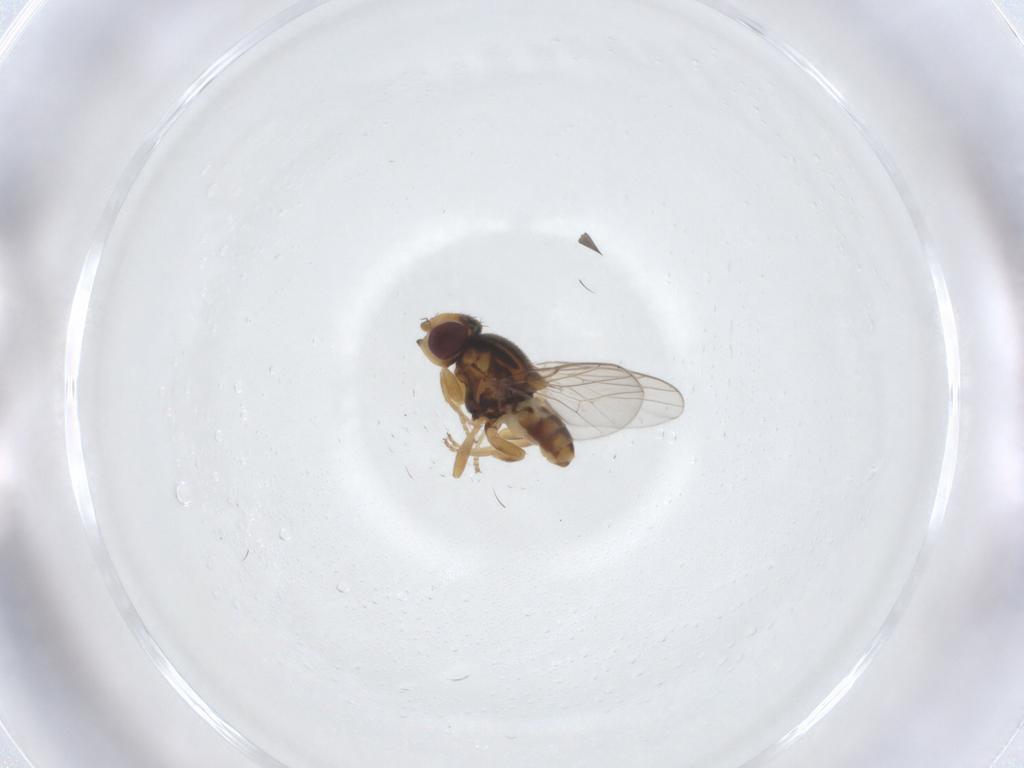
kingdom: Animalia
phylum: Arthropoda
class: Insecta
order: Diptera
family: Chloropidae
